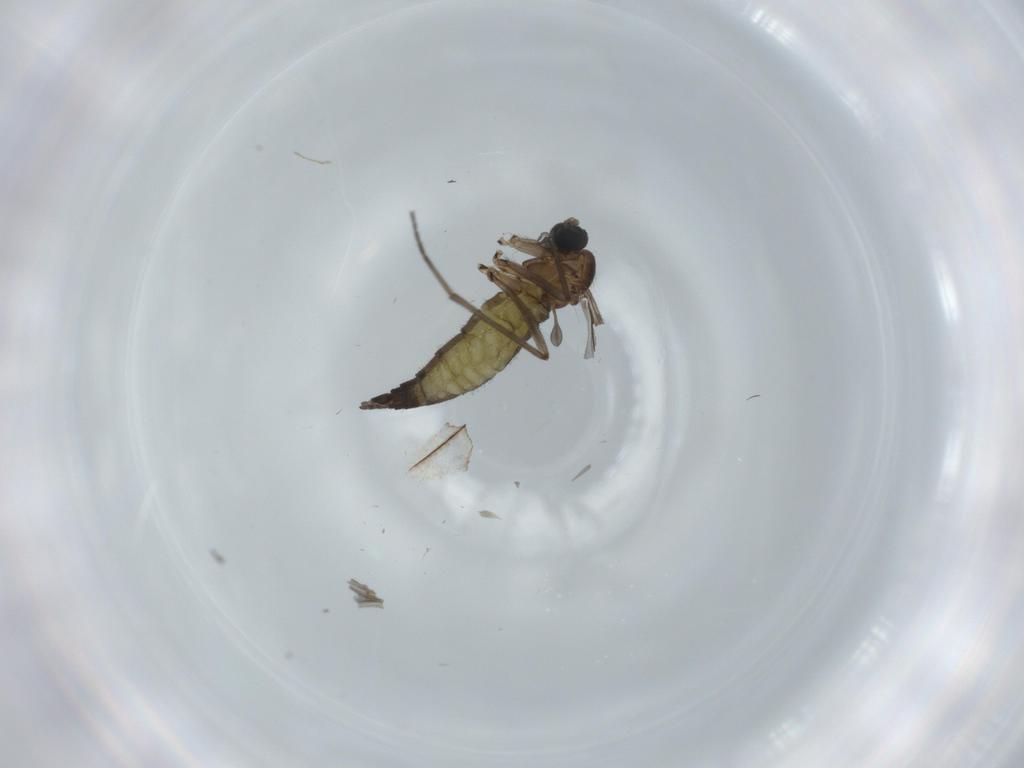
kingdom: Animalia
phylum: Arthropoda
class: Insecta
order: Diptera
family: Sciaridae
